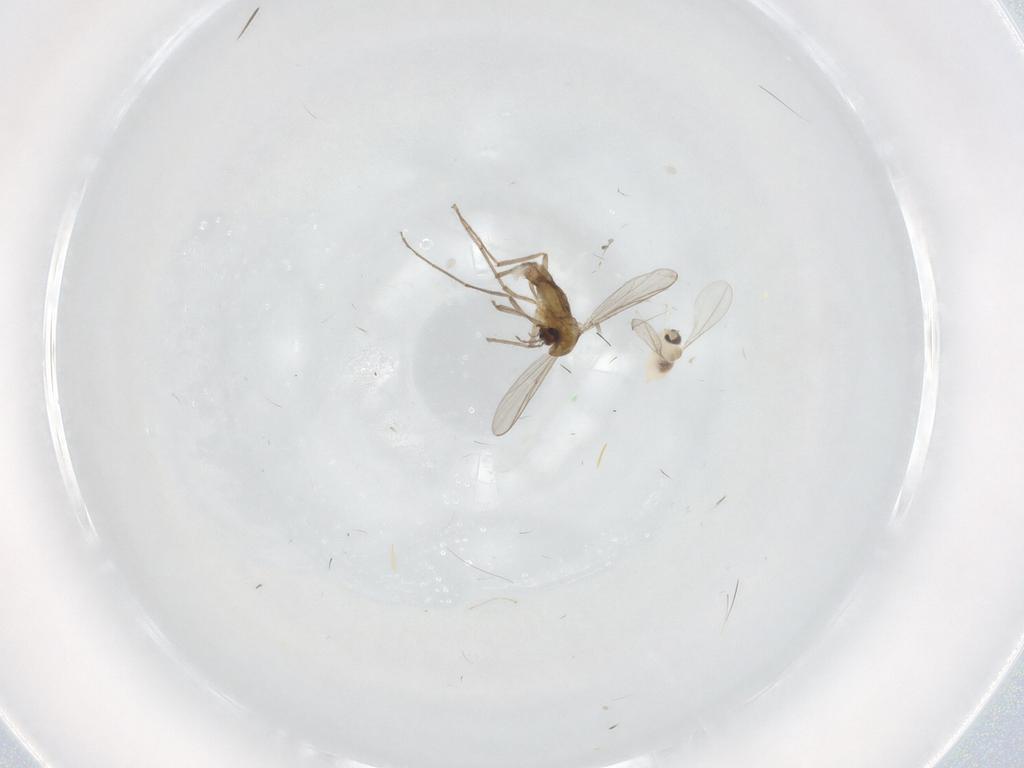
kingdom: Animalia
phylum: Arthropoda
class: Insecta
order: Diptera
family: Chironomidae
